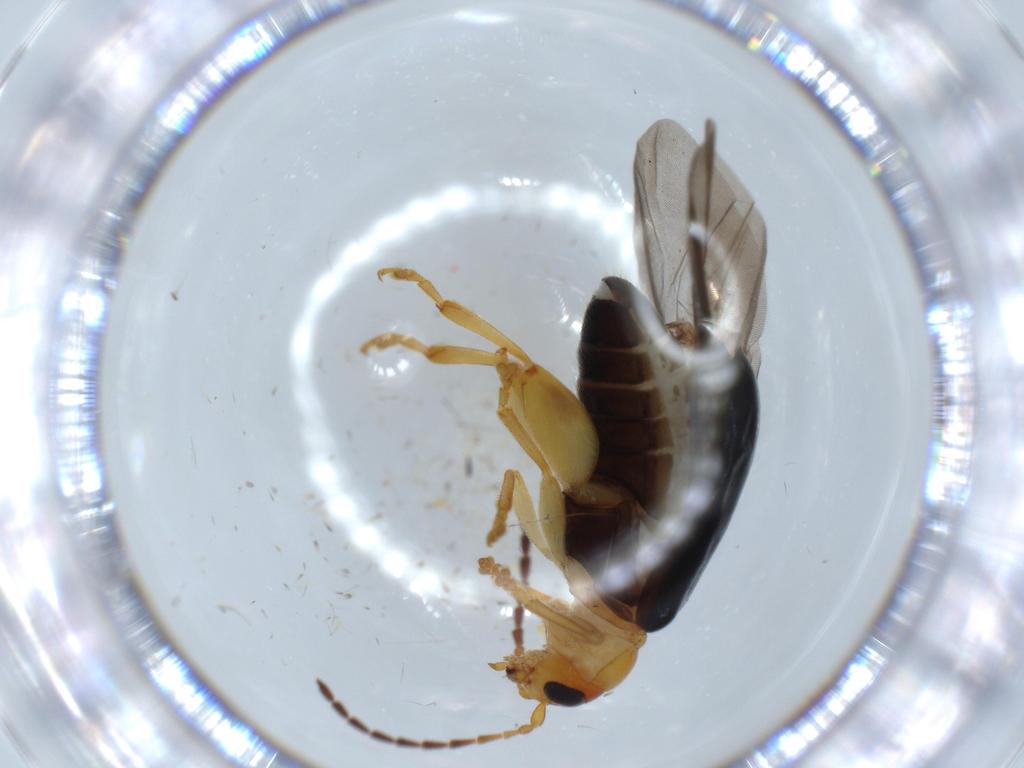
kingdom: Animalia
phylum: Arthropoda
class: Insecta
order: Coleoptera
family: Chrysomelidae
